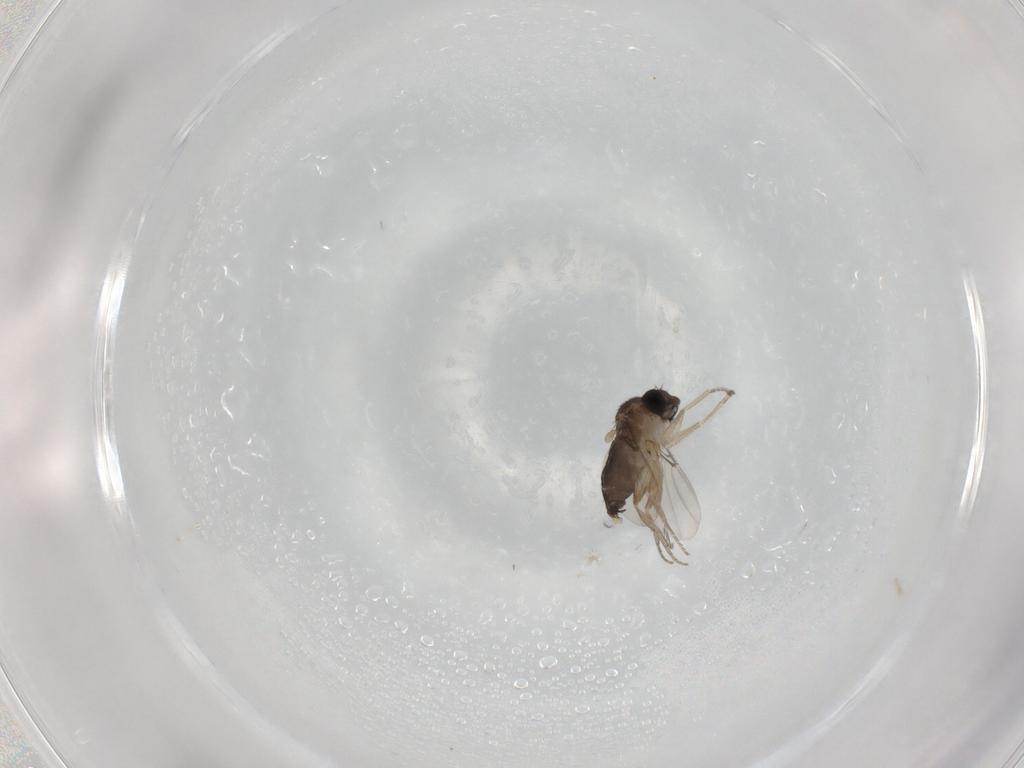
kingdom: Animalia
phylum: Arthropoda
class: Insecta
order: Diptera
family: Phoridae
